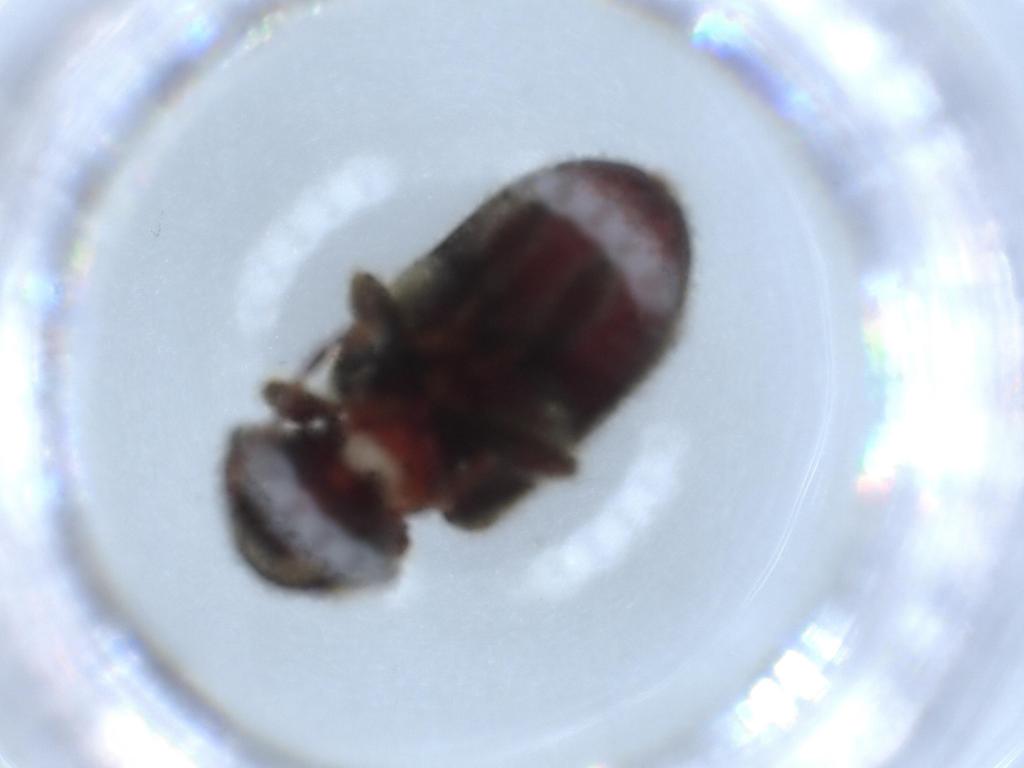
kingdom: Animalia
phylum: Arthropoda
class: Insecta
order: Coleoptera
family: Ptinidae
